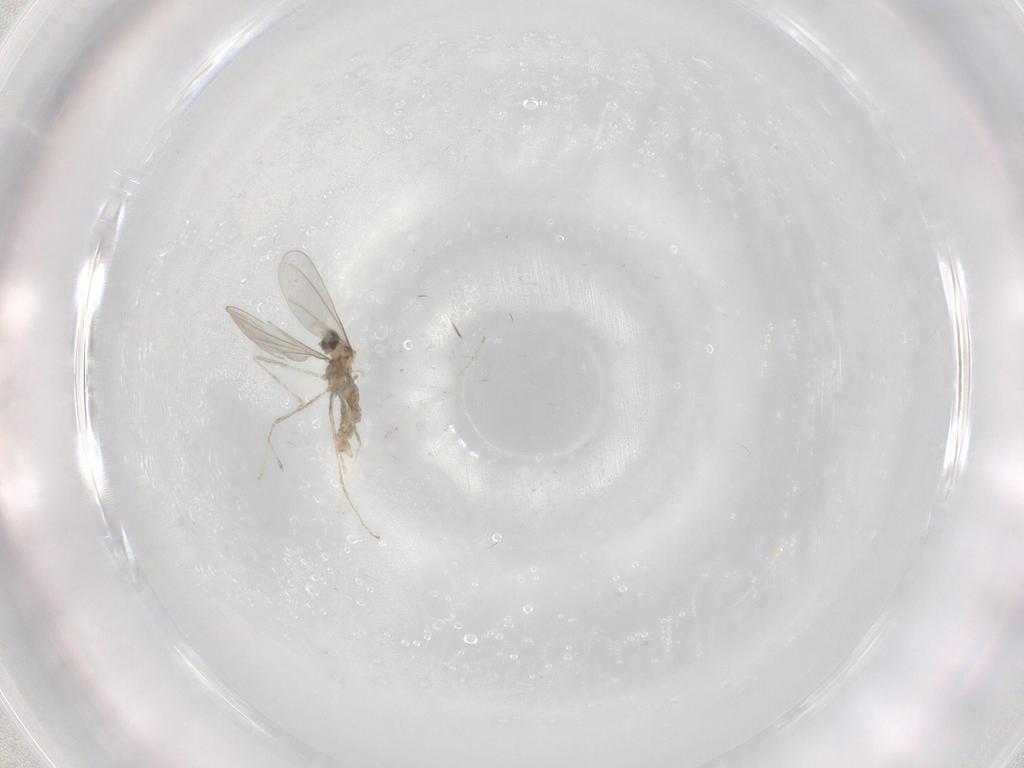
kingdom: Animalia
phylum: Arthropoda
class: Insecta
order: Diptera
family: Cecidomyiidae
